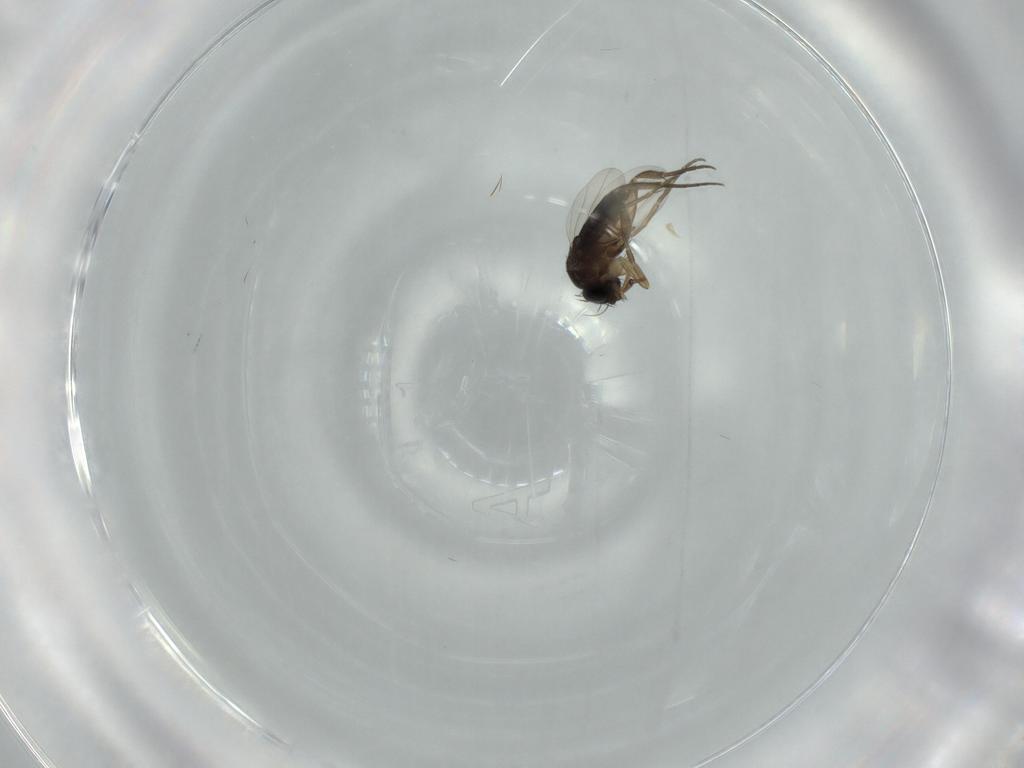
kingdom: Animalia
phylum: Arthropoda
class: Insecta
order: Diptera
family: Phoridae
